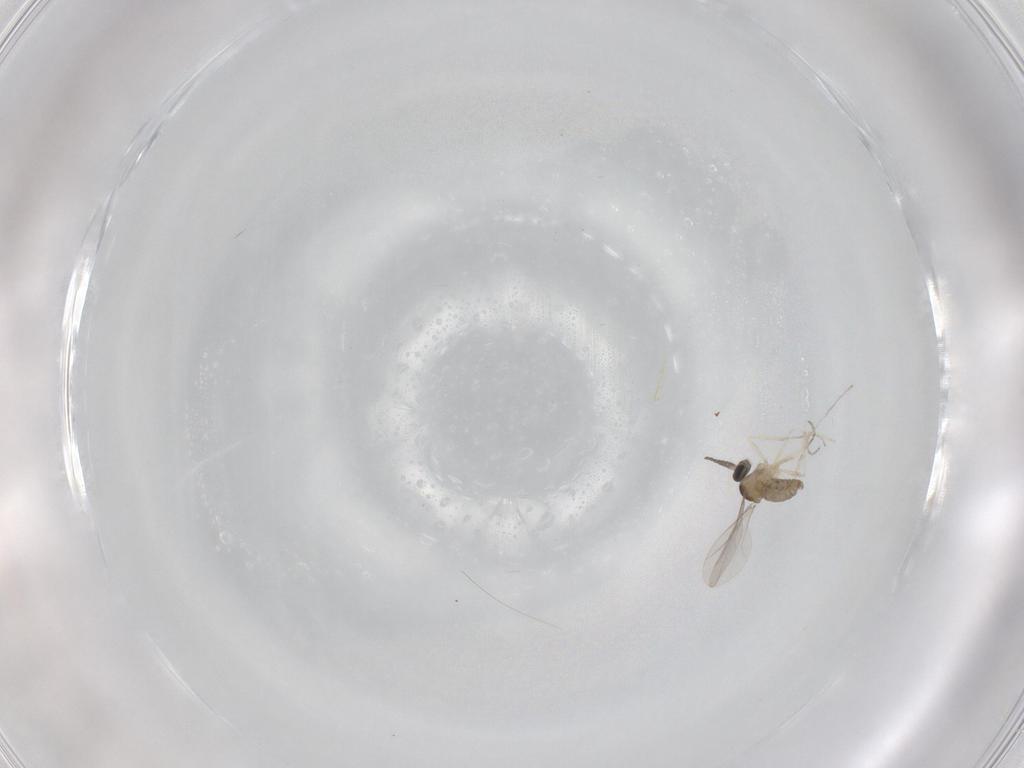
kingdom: Animalia
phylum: Arthropoda
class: Insecta
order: Diptera
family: Cecidomyiidae
